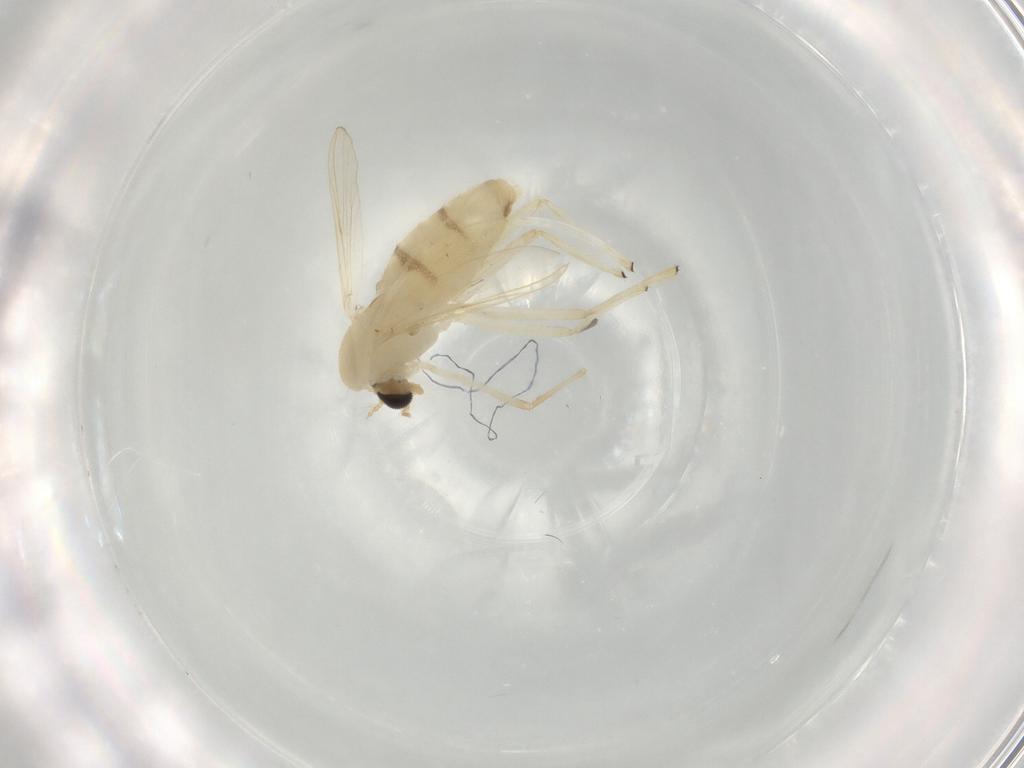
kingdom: Animalia
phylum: Arthropoda
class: Insecta
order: Diptera
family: Chironomidae
